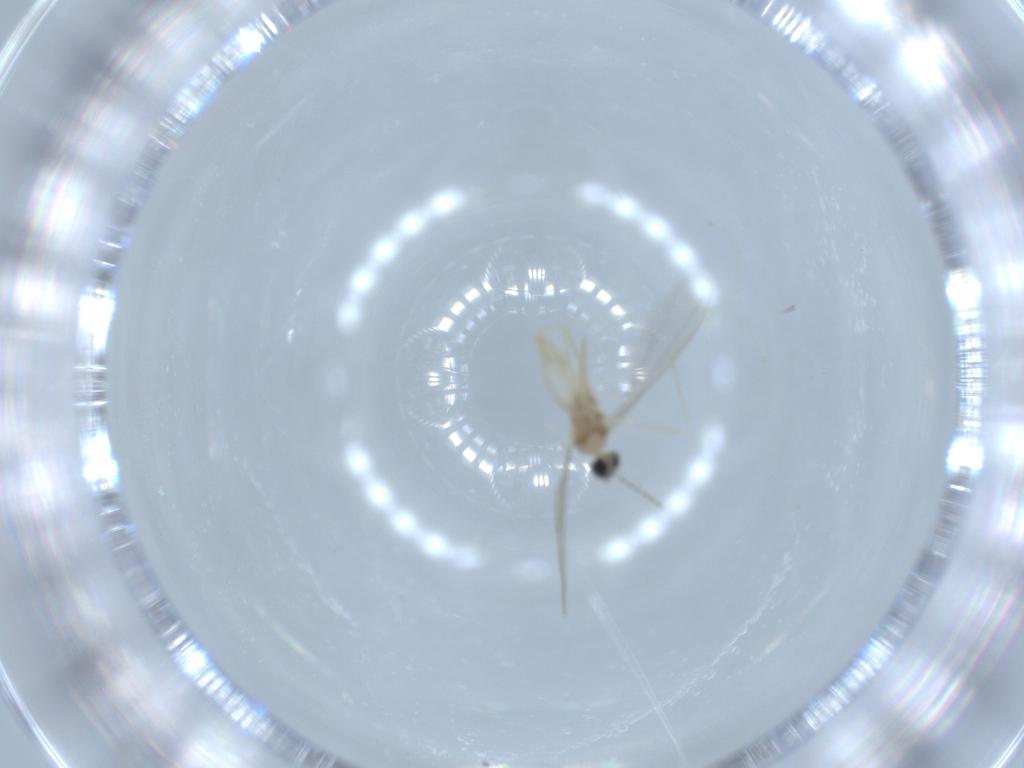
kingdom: Animalia
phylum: Arthropoda
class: Insecta
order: Diptera
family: Cecidomyiidae
